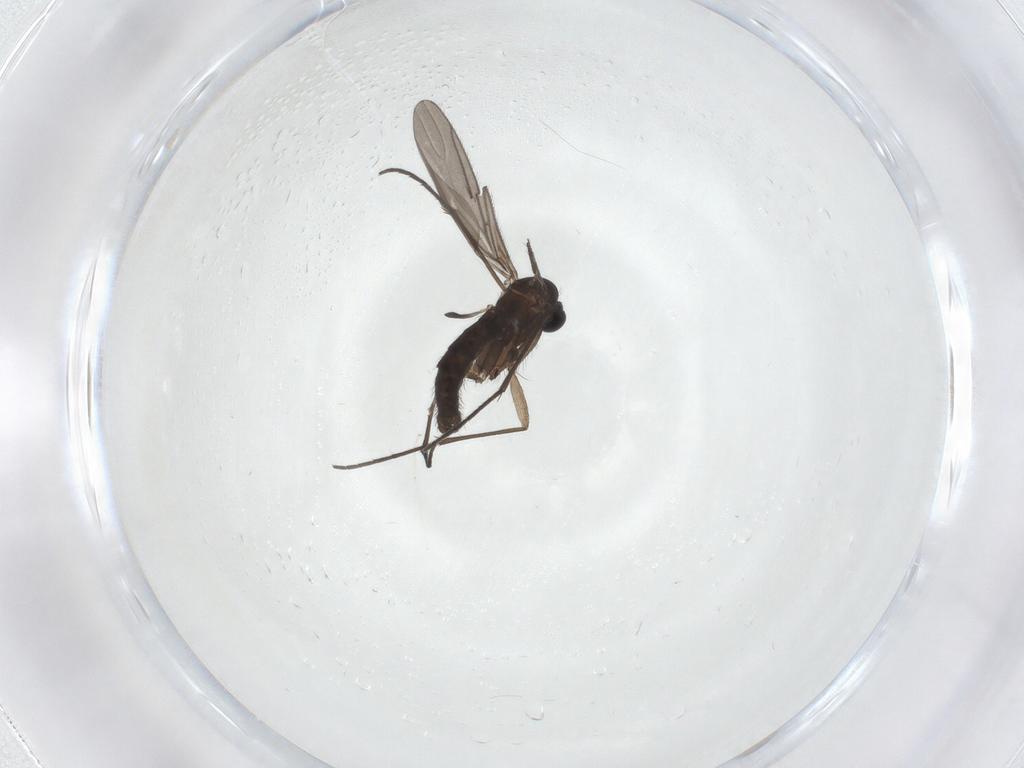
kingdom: Animalia
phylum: Arthropoda
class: Insecta
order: Diptera
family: Sciaridae
